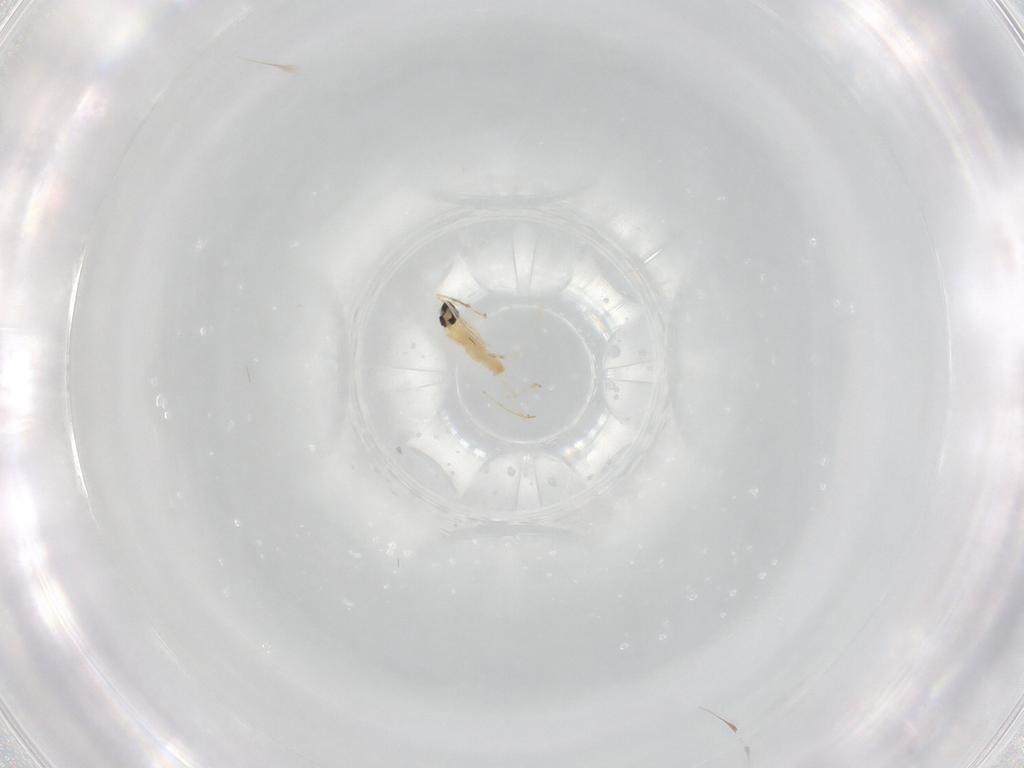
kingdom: Animalia
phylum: Arthropoda
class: Insecta
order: Diptera
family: Cecidomyiidae
